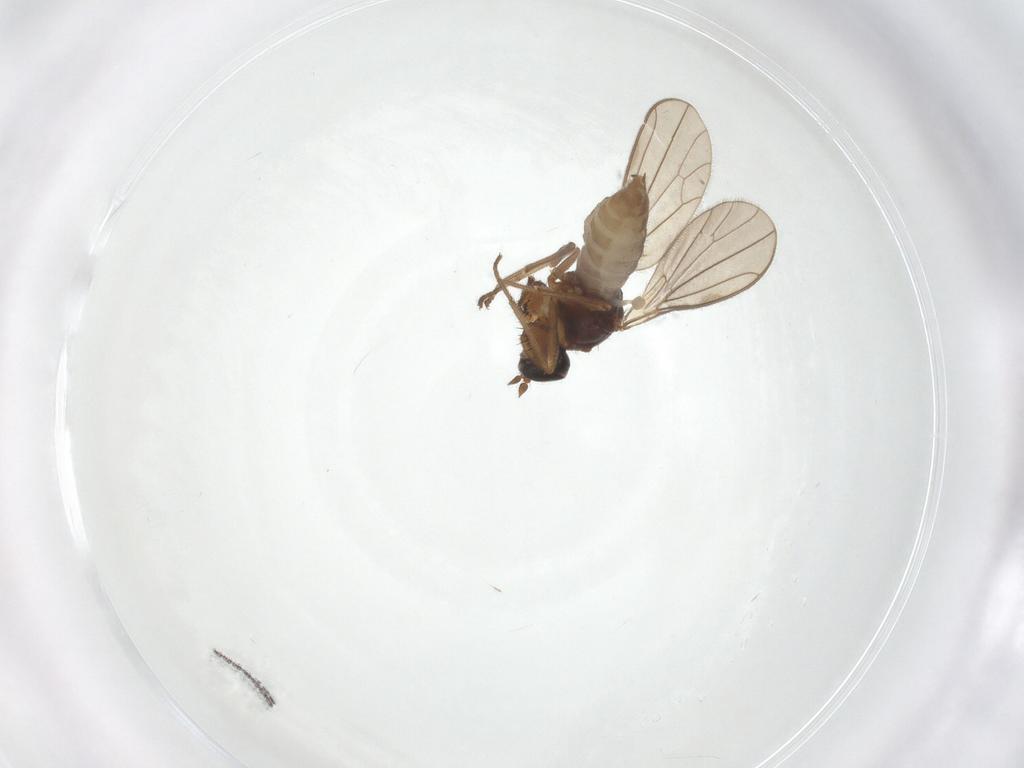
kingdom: Animalia
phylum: Arthropoda
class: Insecta
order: Diptera
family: Empididae
